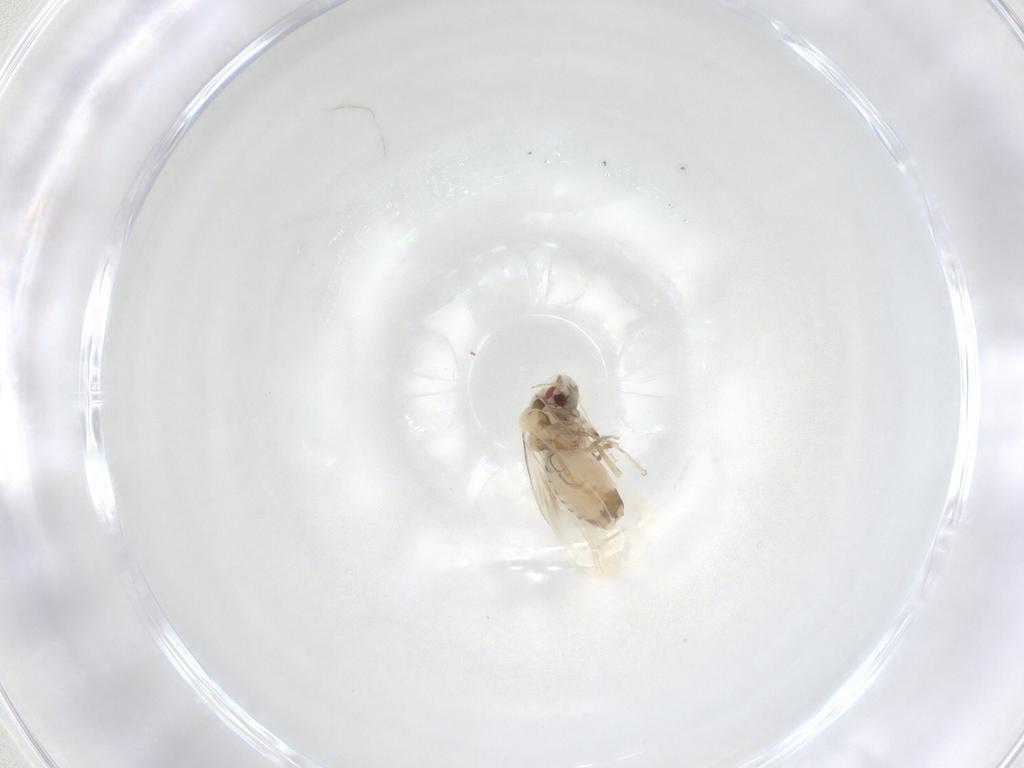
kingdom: Animalia
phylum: Arthropoda
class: Insecta
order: Hemiptera
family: Aleyrodidae
